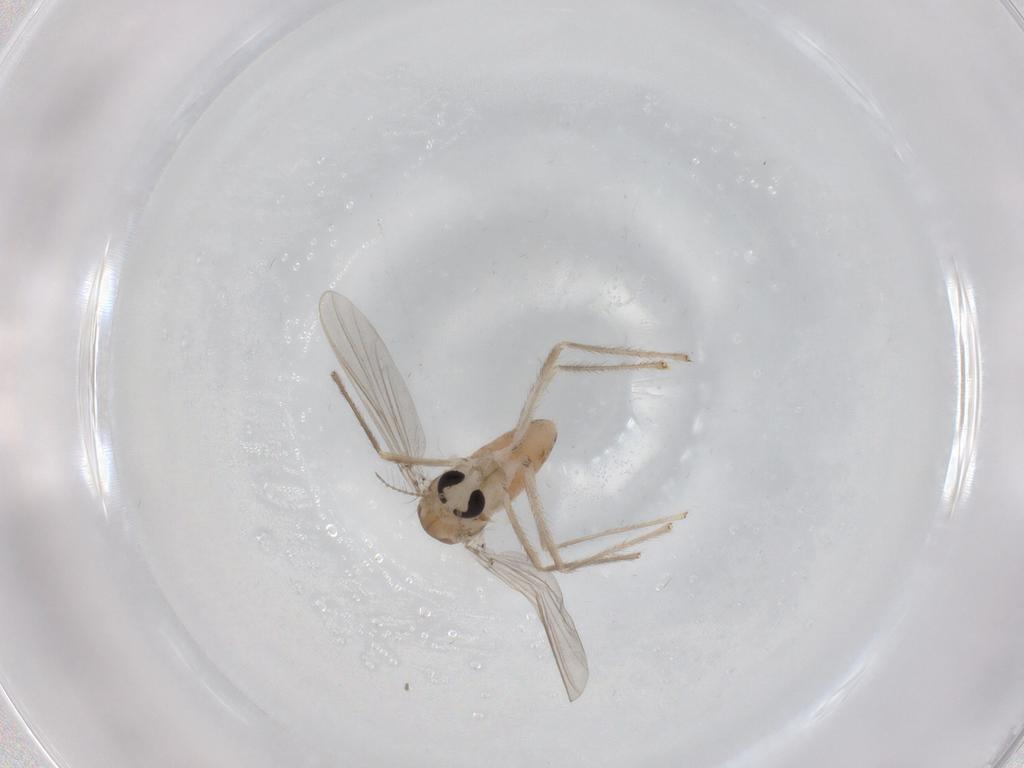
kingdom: Animalia
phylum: Arthropoda
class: Insecta
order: Diptera
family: Chironomidae
